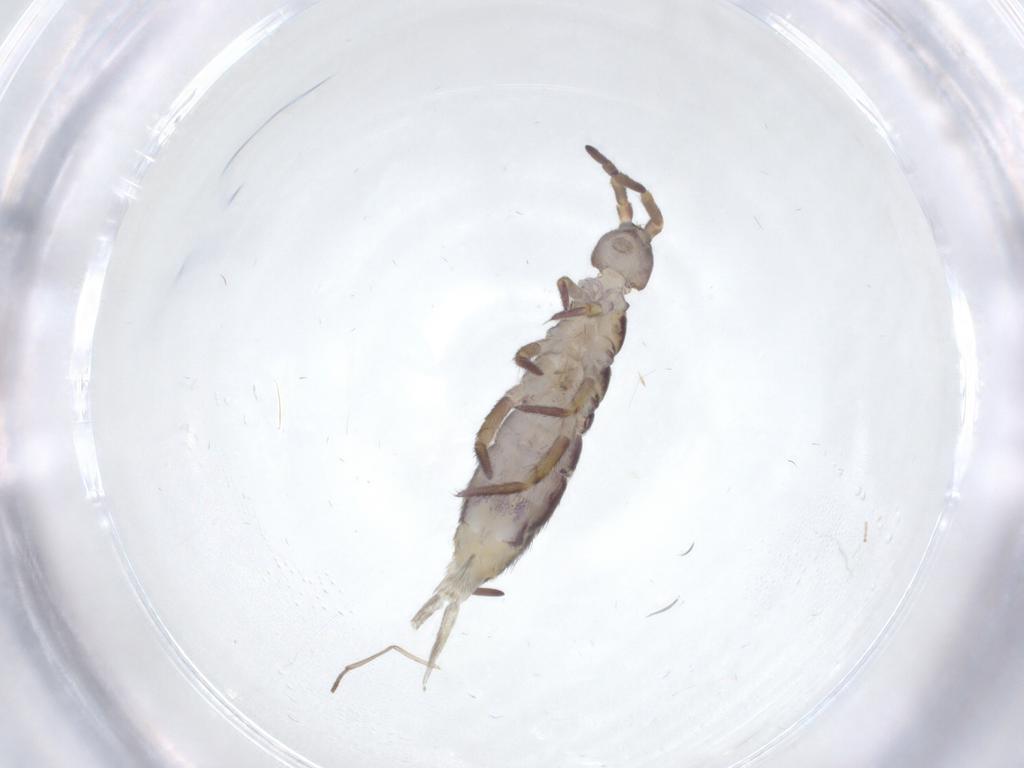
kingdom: Animalia
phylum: Arthropoda
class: Collembola
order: Entomobryomorpha
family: Isotomidae
